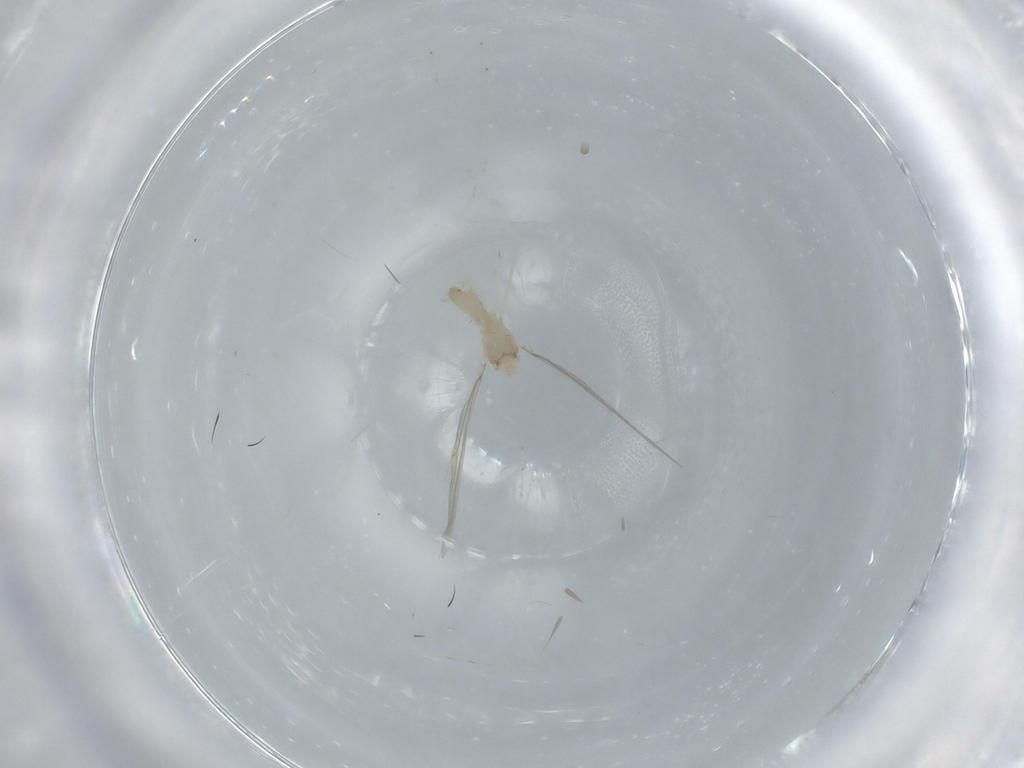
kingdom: Animalia
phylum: Arthropoda
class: Insecta
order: Diptera
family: Cecidomyiidae
